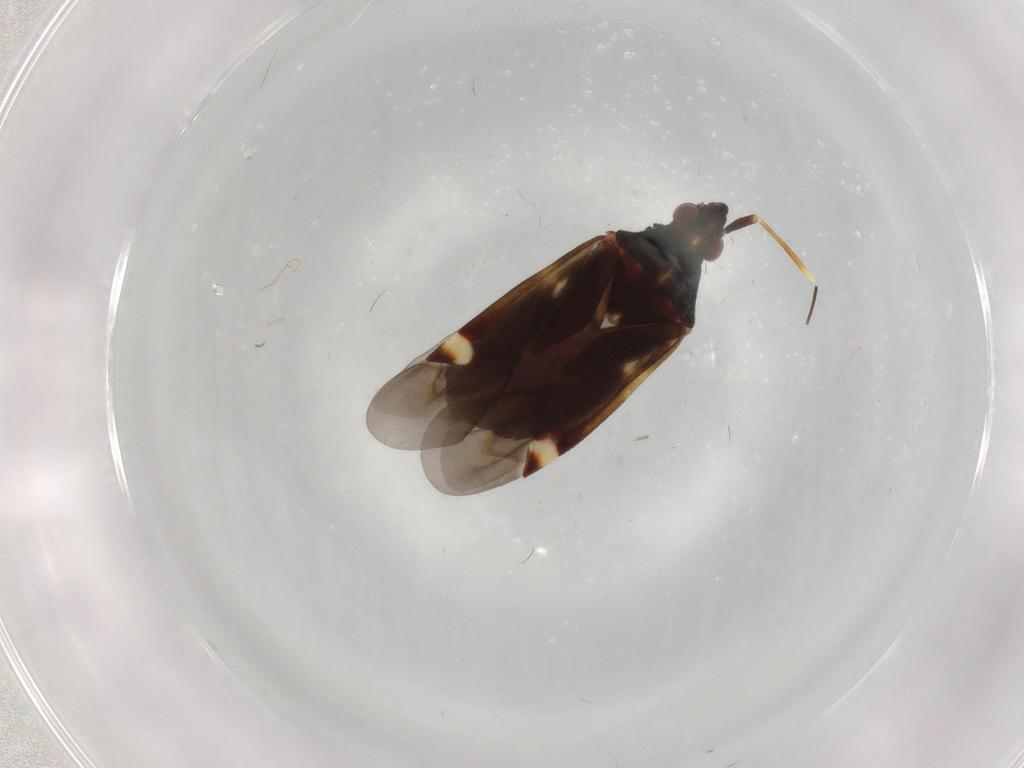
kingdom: Animalia
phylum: Arthropoda
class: Insecta
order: Hemiptera
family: Miridae
